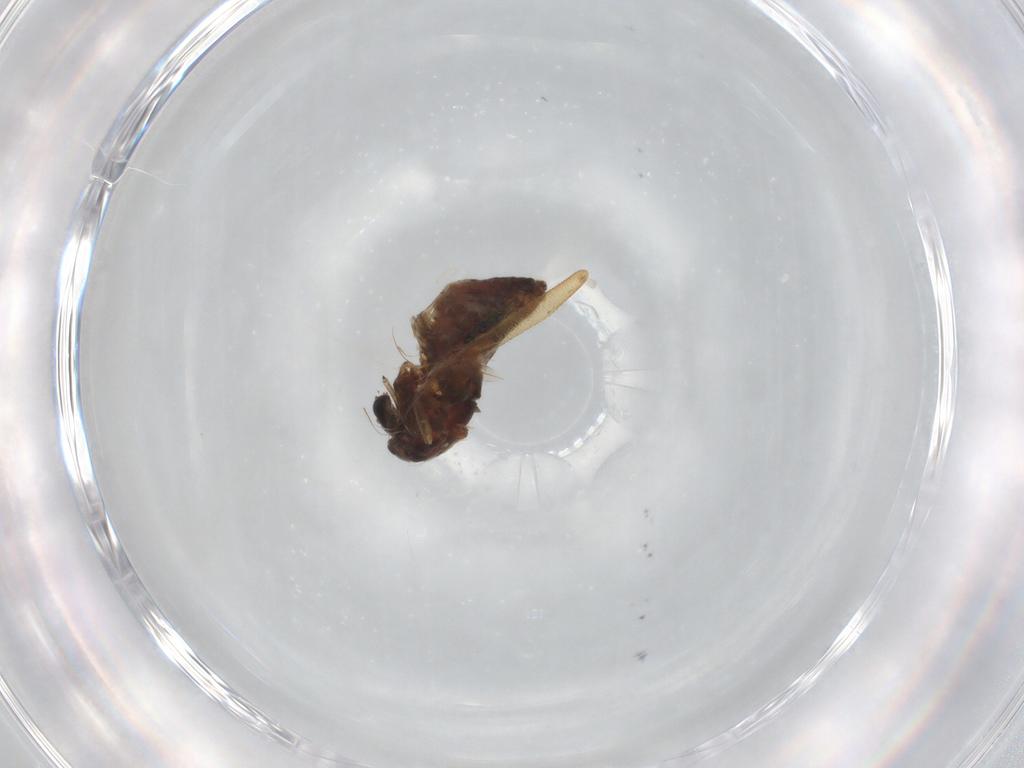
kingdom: Animalia
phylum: Arthropoda
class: Insecta
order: Diptera
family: Chironomidae
